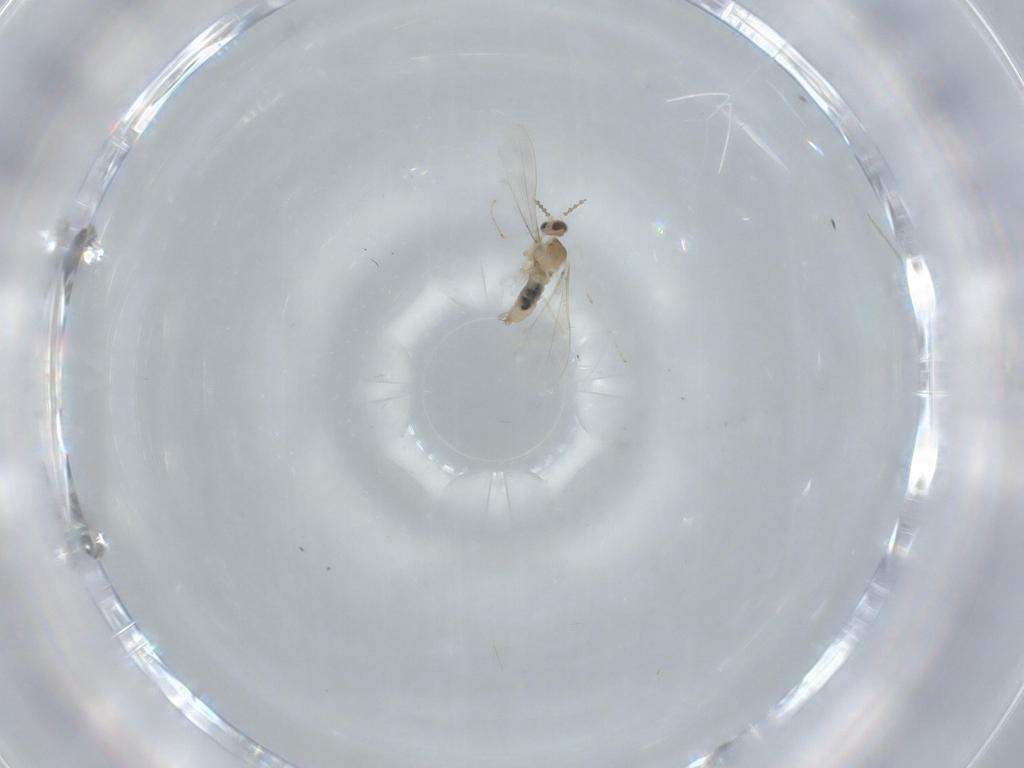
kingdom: Animalia
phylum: Arthropoda
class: Insecta
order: Diptera
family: Cecidomyiidae
